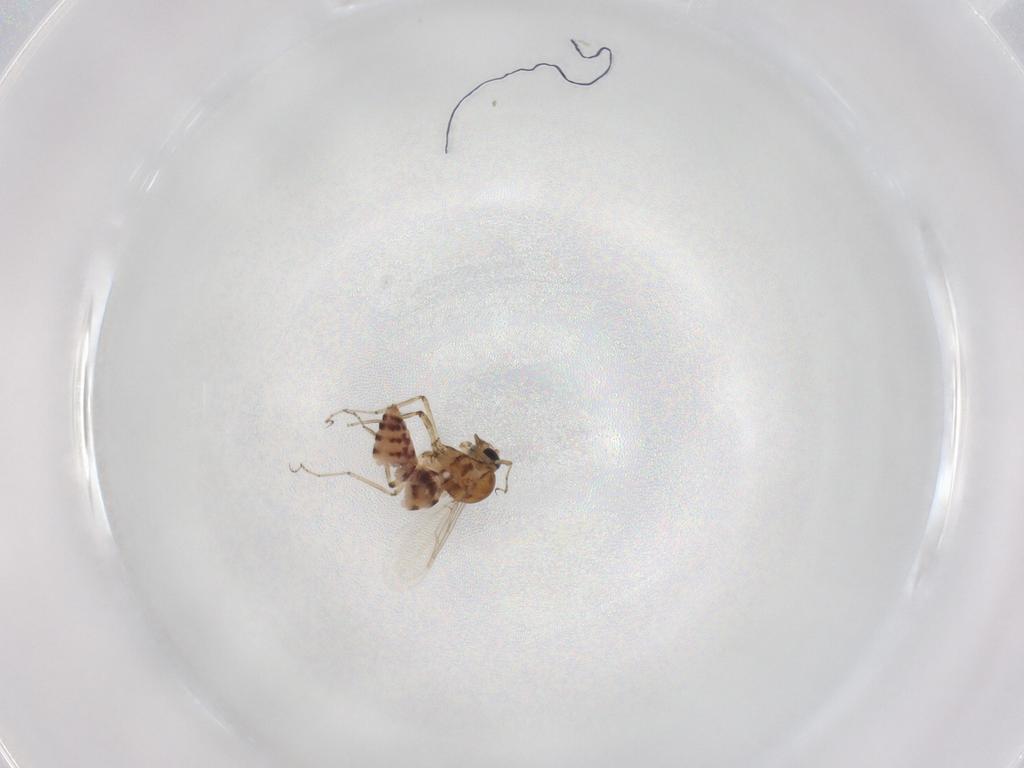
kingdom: Animalia
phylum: Arthropoda
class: Insecta
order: Diptera
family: Ceratopogonidae
